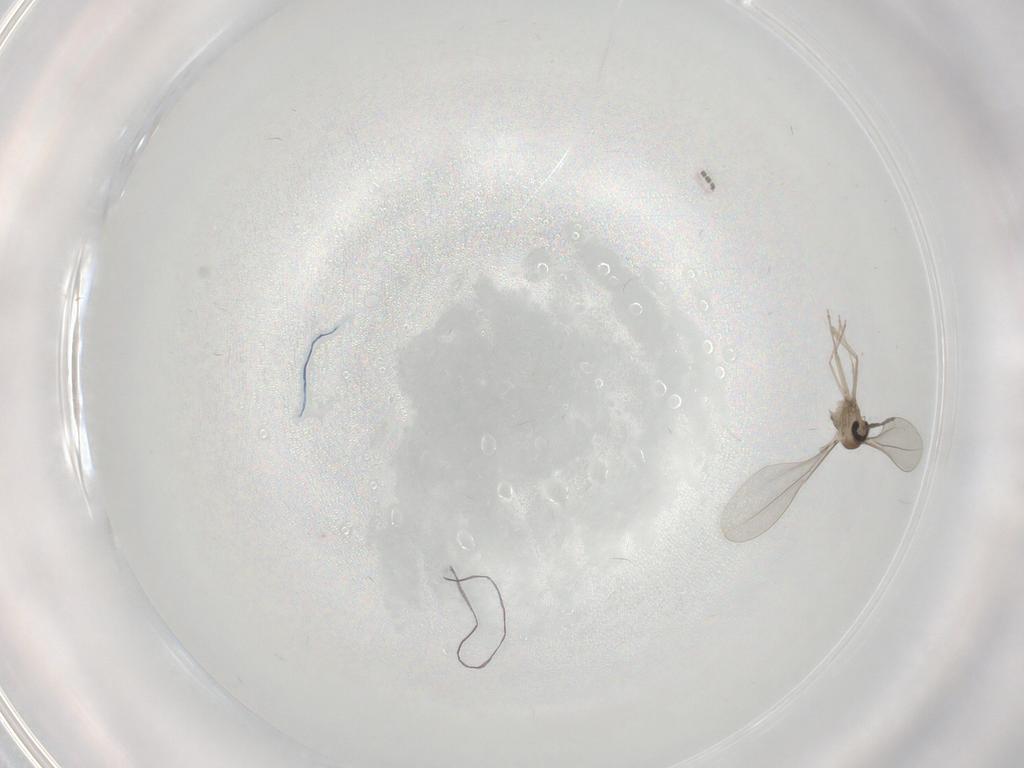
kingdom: Animalia
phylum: Arthropoda
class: Insecta
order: Diptera
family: Cecidomyiidae
